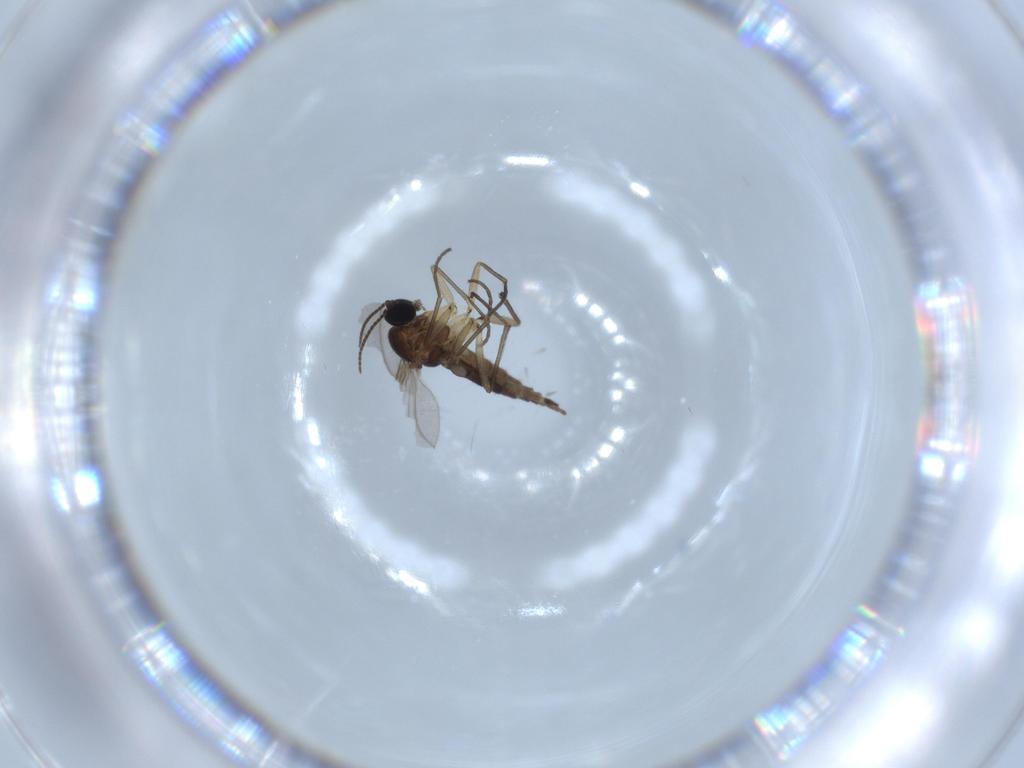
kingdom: Animalia
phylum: Arthropoda
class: Insecta
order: Diptera
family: Sciaridae
